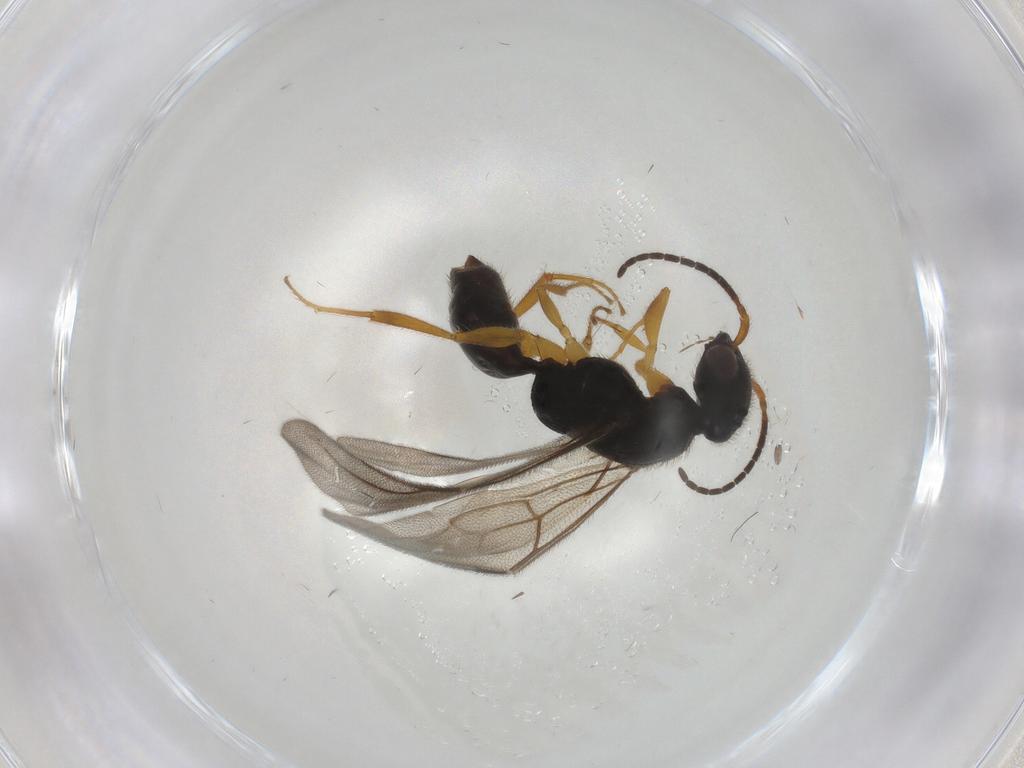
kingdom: Animalia
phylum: Arthropoda
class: Insecta
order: Hymenoptera
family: Bethylidae
